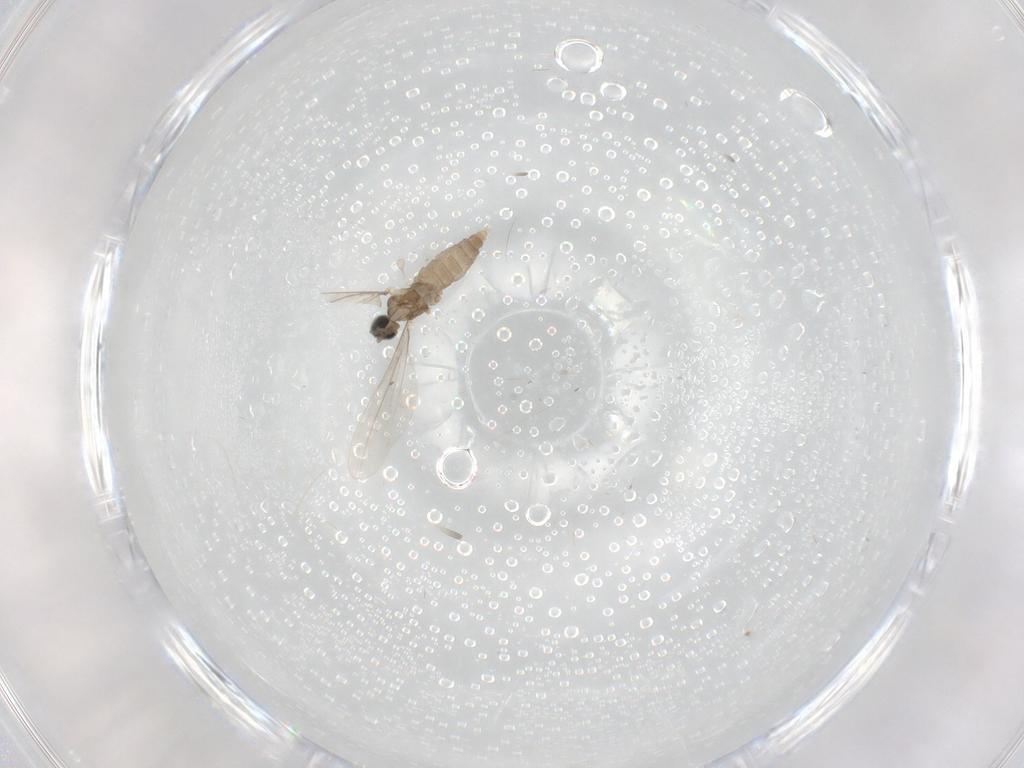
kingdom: Animalia
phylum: Arthropoda
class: Insecta
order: Diptera
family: Cecidomyiidae
